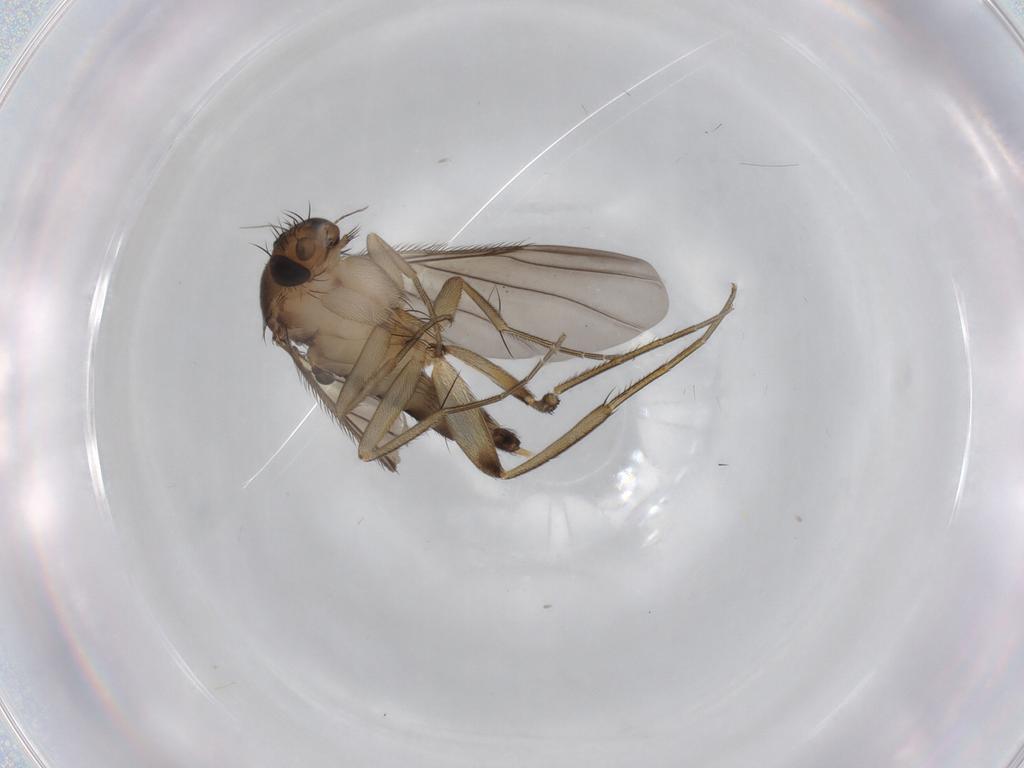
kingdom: Animalia
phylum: Arthropoda
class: Insecta
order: Diptera
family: Phoridae
